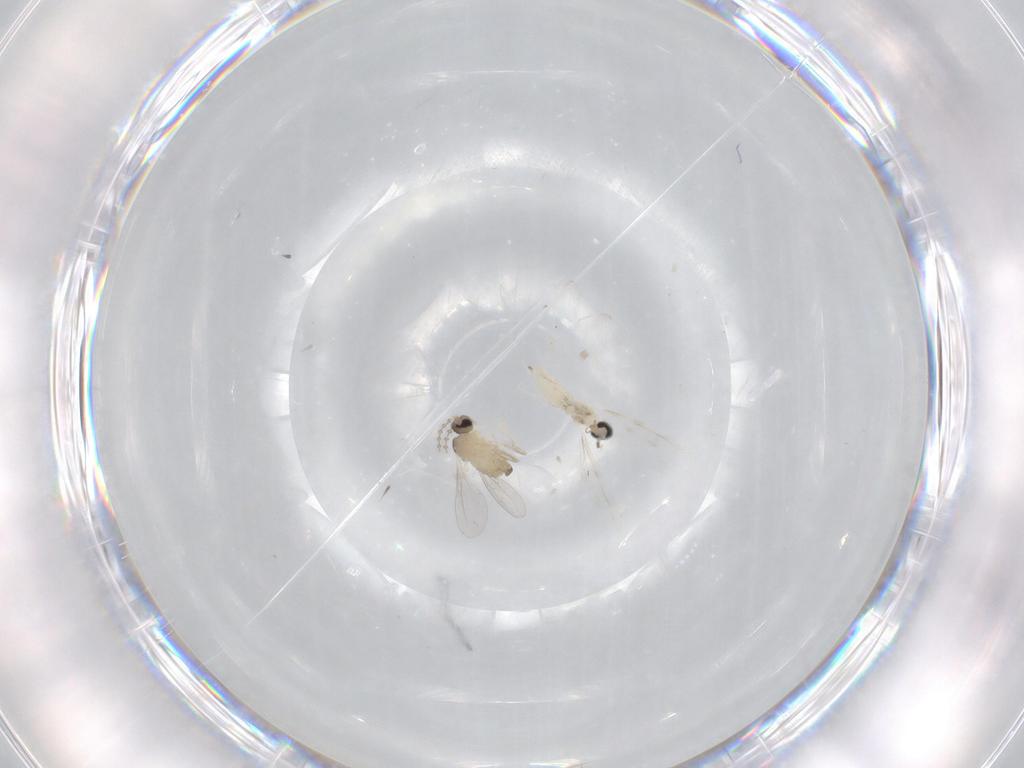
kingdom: Animalia
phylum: Arthropoda
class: Insecta
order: Diptera
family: Cecidomyiidae
